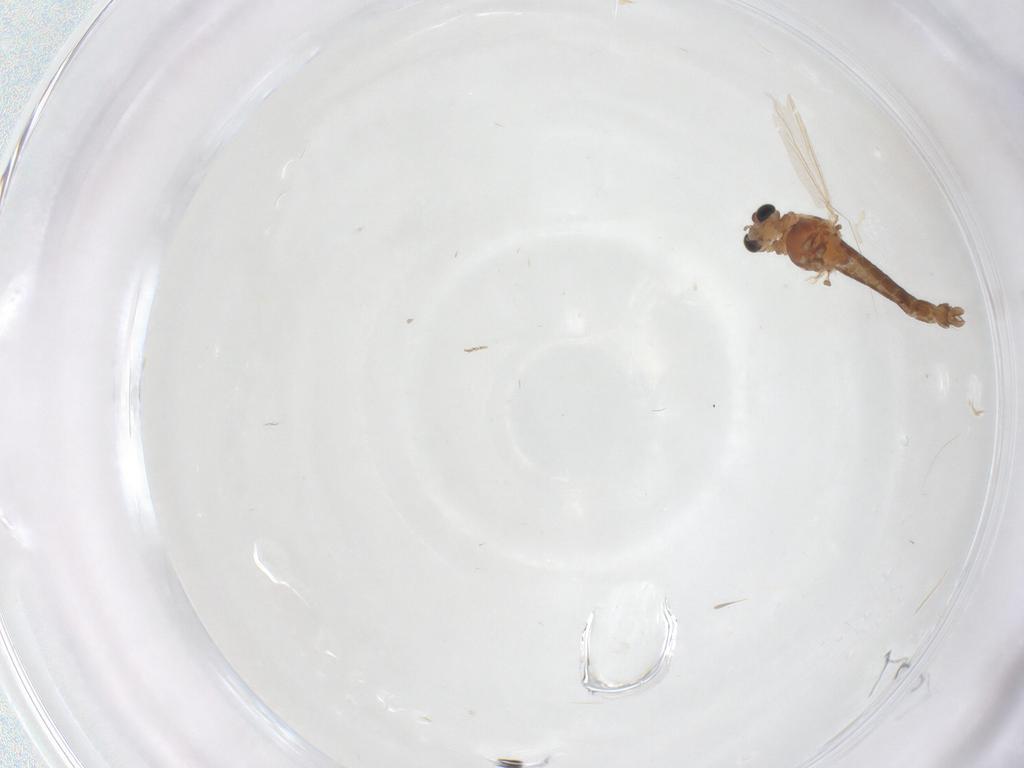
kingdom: Animalia
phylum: Arthropoda
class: Insecta
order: Diptera
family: Chironomidae
